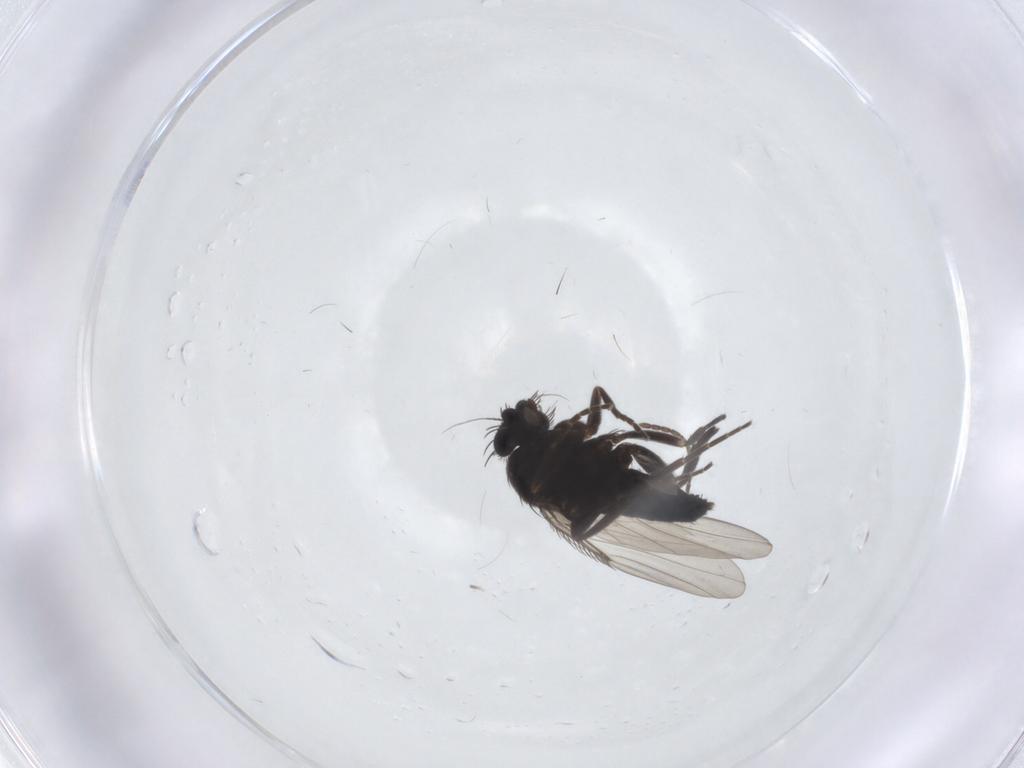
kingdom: Animalia
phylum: Arthropoda
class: Insecta
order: Diptera
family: Phoridae
